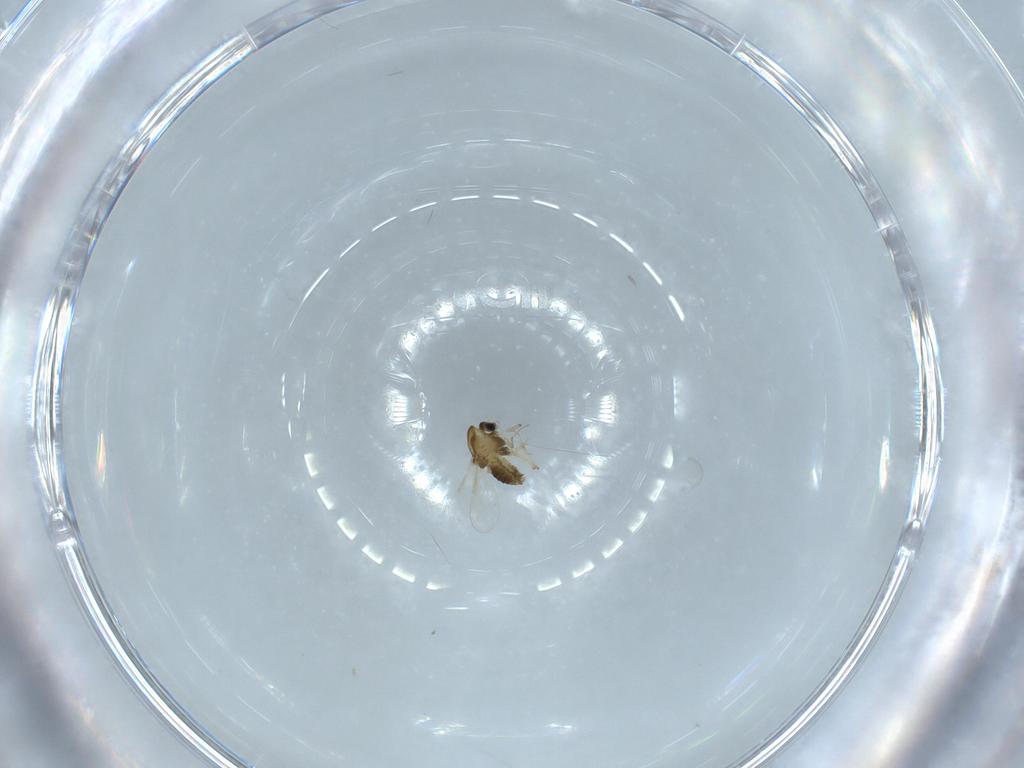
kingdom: Animalia
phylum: Arthropoda
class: Insecta
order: Diptera
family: Chironomidae
